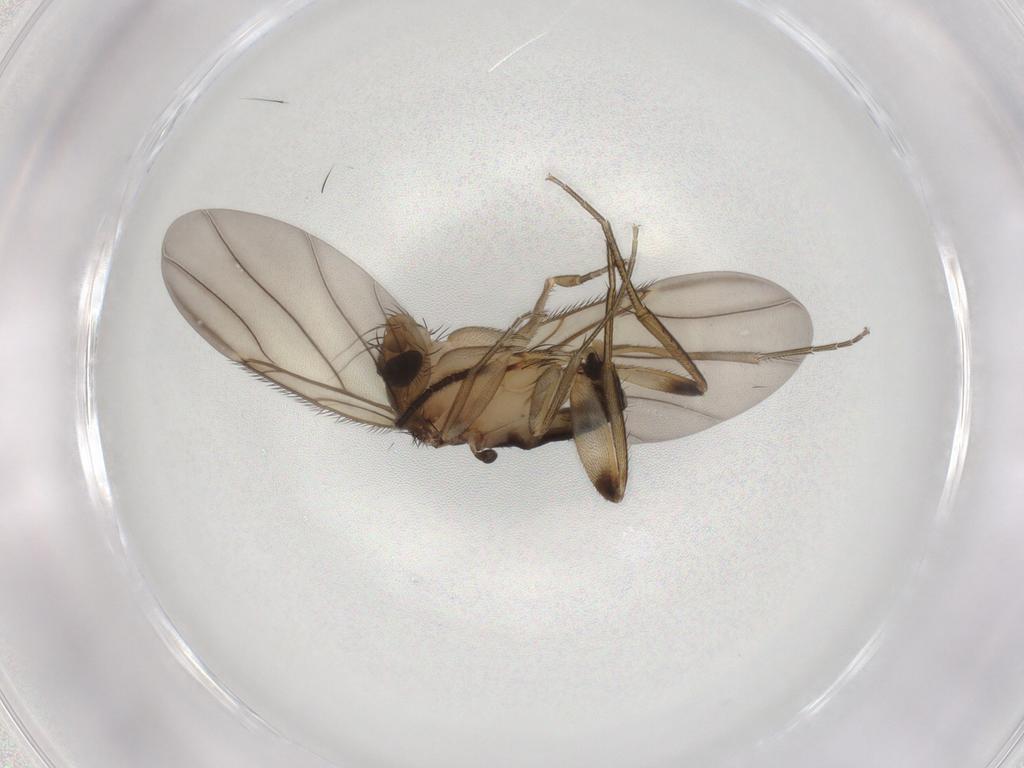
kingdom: Animalia
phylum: Arthropoda
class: Insecta
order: Diptera
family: Phoridae
